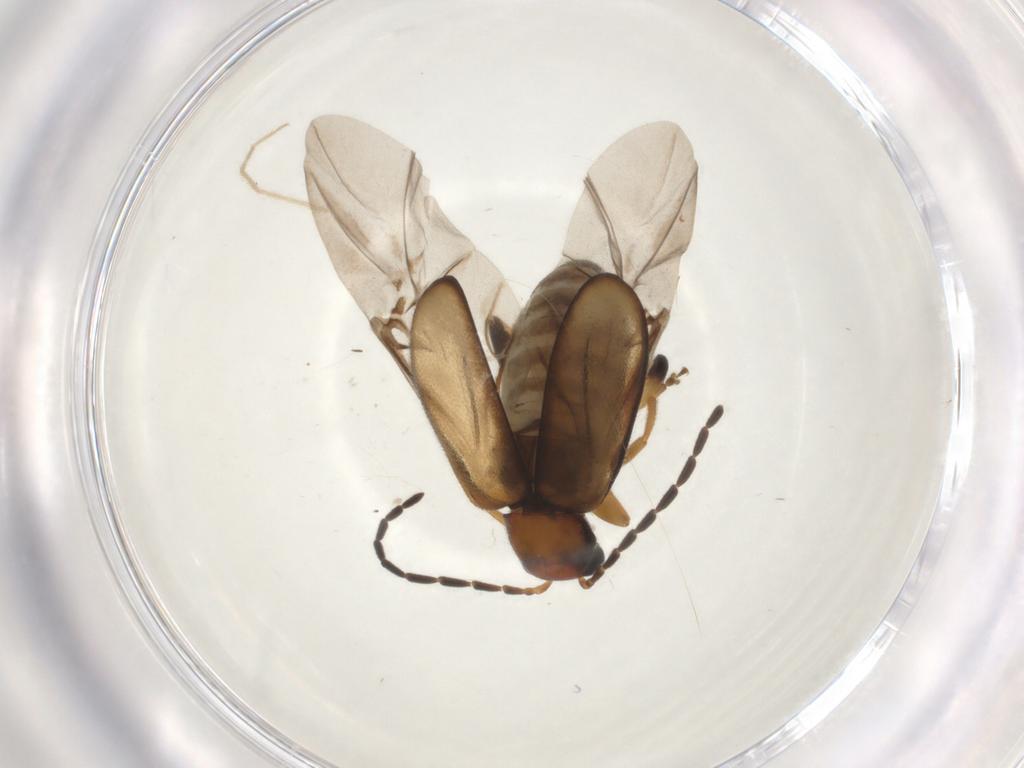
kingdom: Animalia
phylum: Arthropoda
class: Insecta
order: Coleoptera
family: Chrysomelidae
